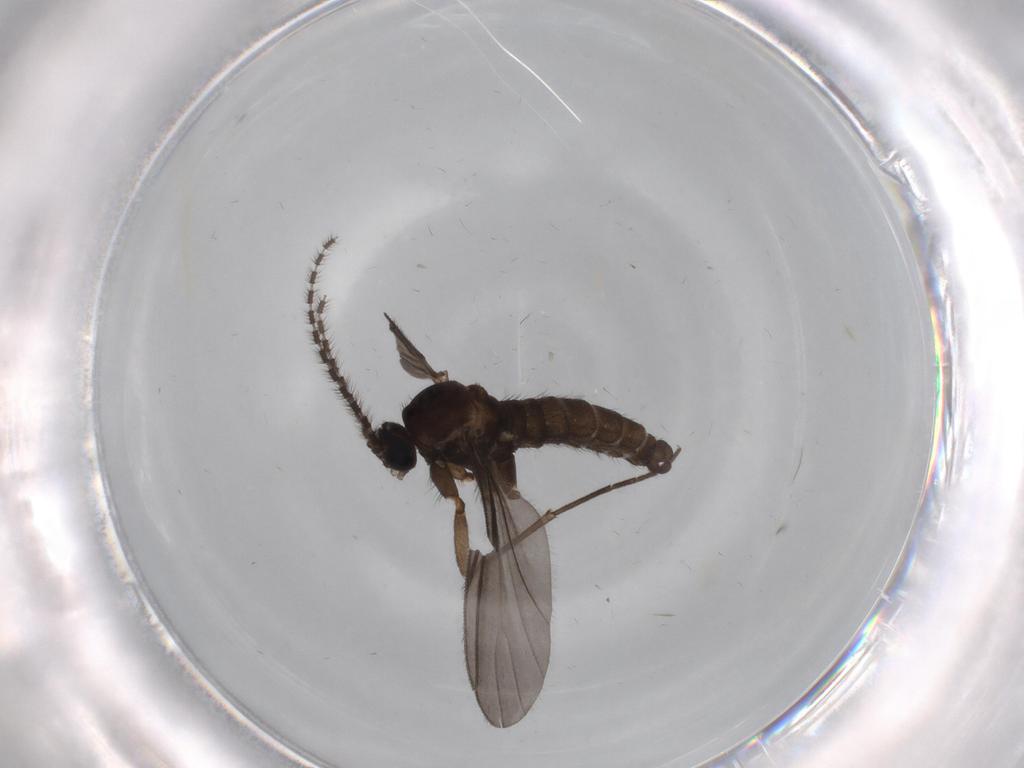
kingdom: Animalia
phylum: Arthropoda
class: Insecta
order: Diptera
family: Sciaridae
